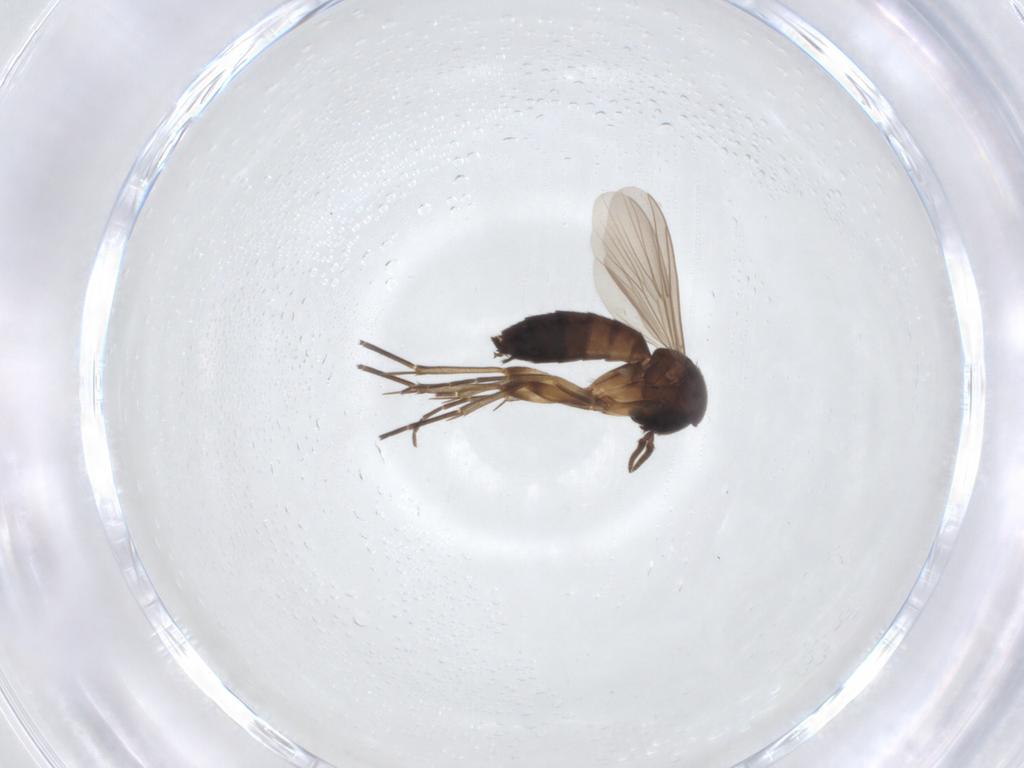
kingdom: Animalia
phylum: Arthropoda
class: Insecta
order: Diptera
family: Mycetophilidae
